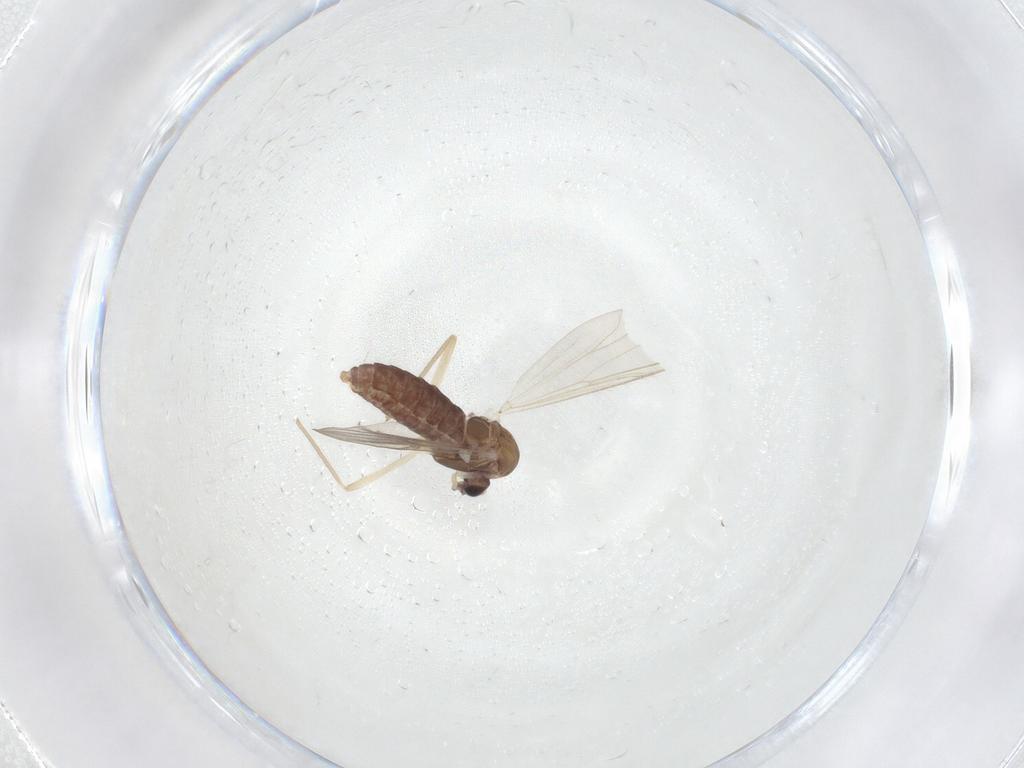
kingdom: Animalia
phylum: Arthropoda
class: Insecta
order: Diptera
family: Chironomidae
